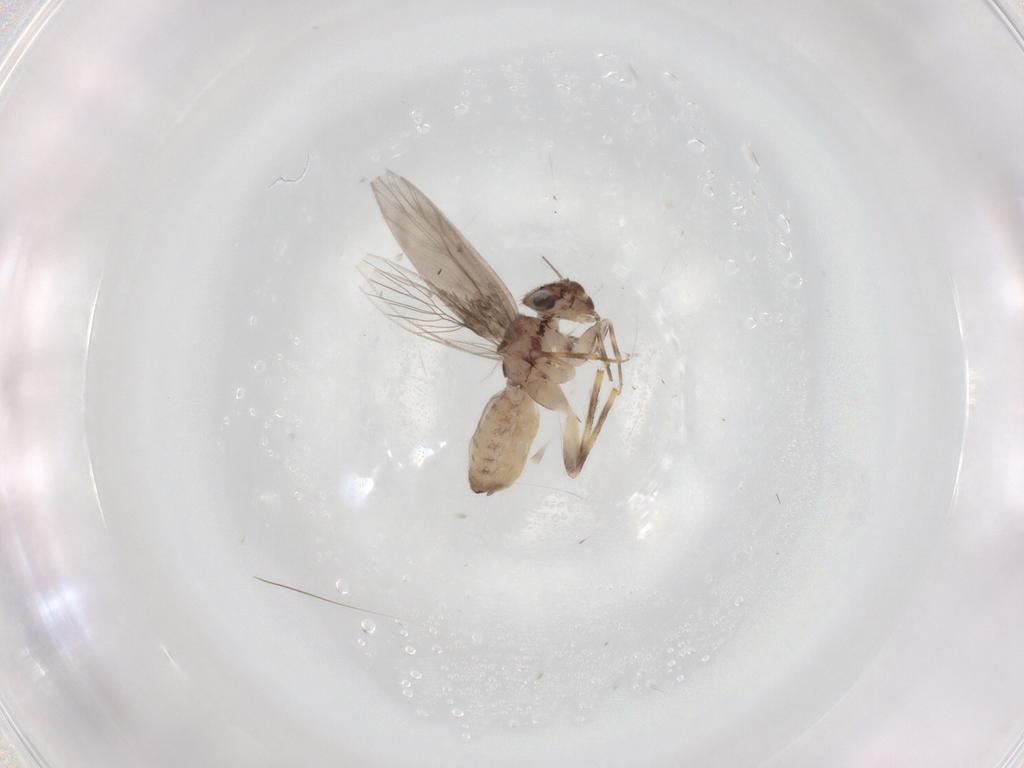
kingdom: Animalia
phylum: Arthropoda
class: Insecta
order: Psocodea
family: Lepidopsocidae
